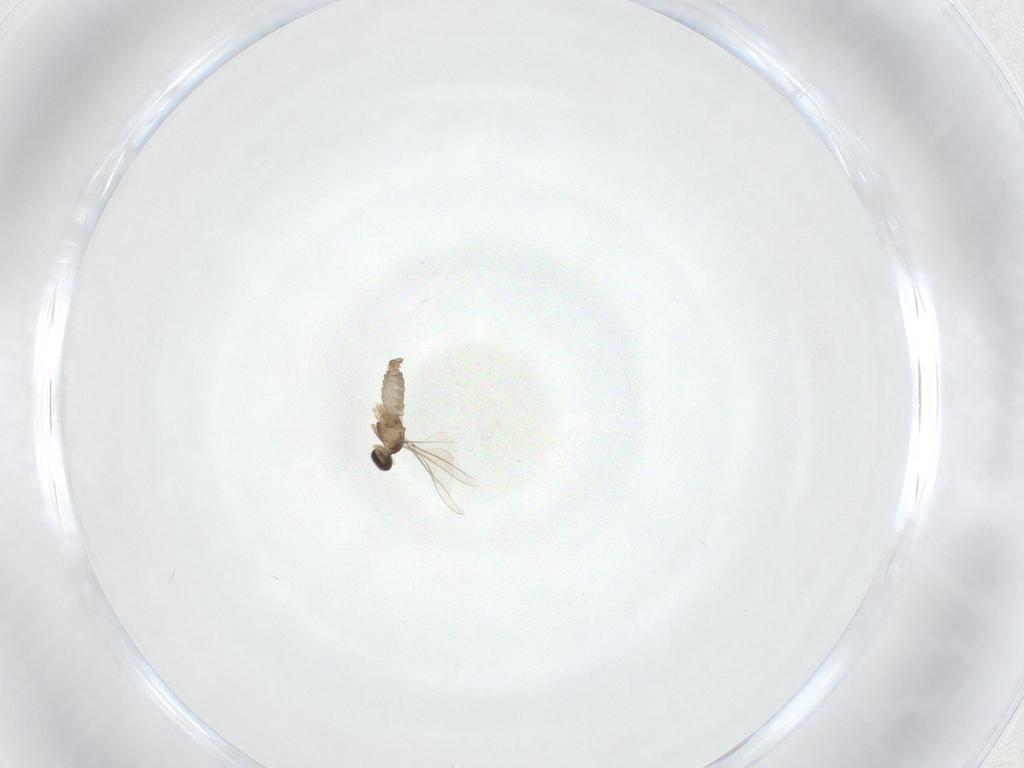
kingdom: Animalia
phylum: Arthropoda
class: Insecta
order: Diptera
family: Cecidomyiidae
